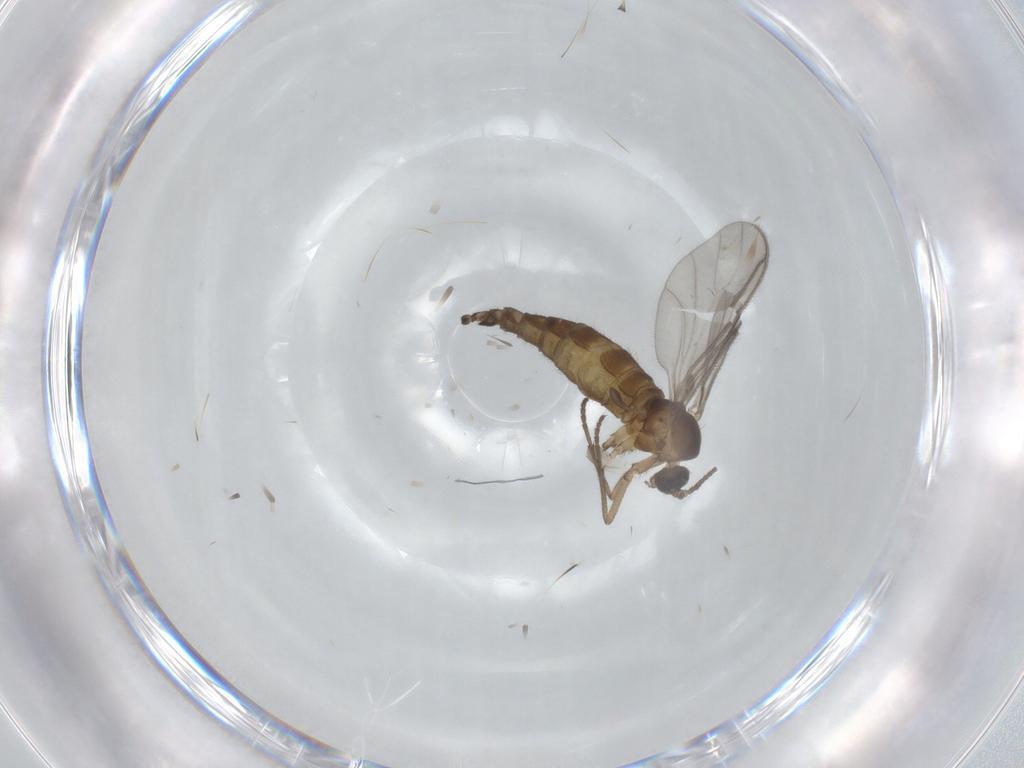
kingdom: Animalia
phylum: Arthropoda
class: Insecta
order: Diptera
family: Sciaridae
